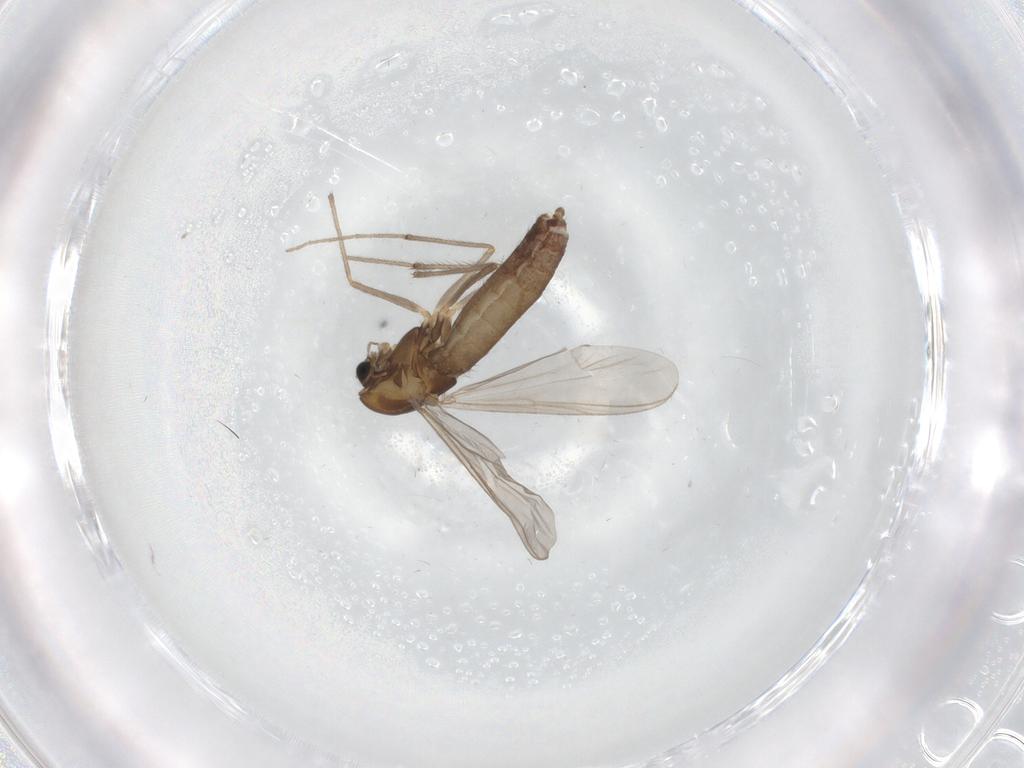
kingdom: Animalia
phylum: Arthropoda
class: Insecta
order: Diptera
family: Chironomidae
